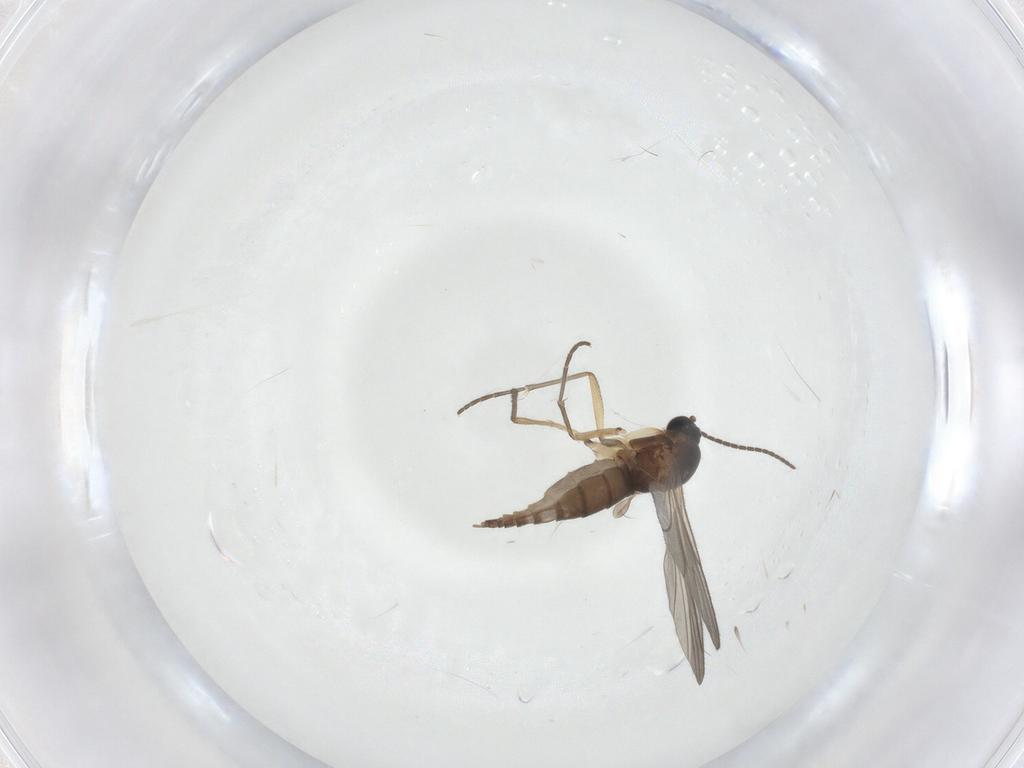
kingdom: Animalia
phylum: Arthropoda
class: Insecta
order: Diptera
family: Sciaridae
